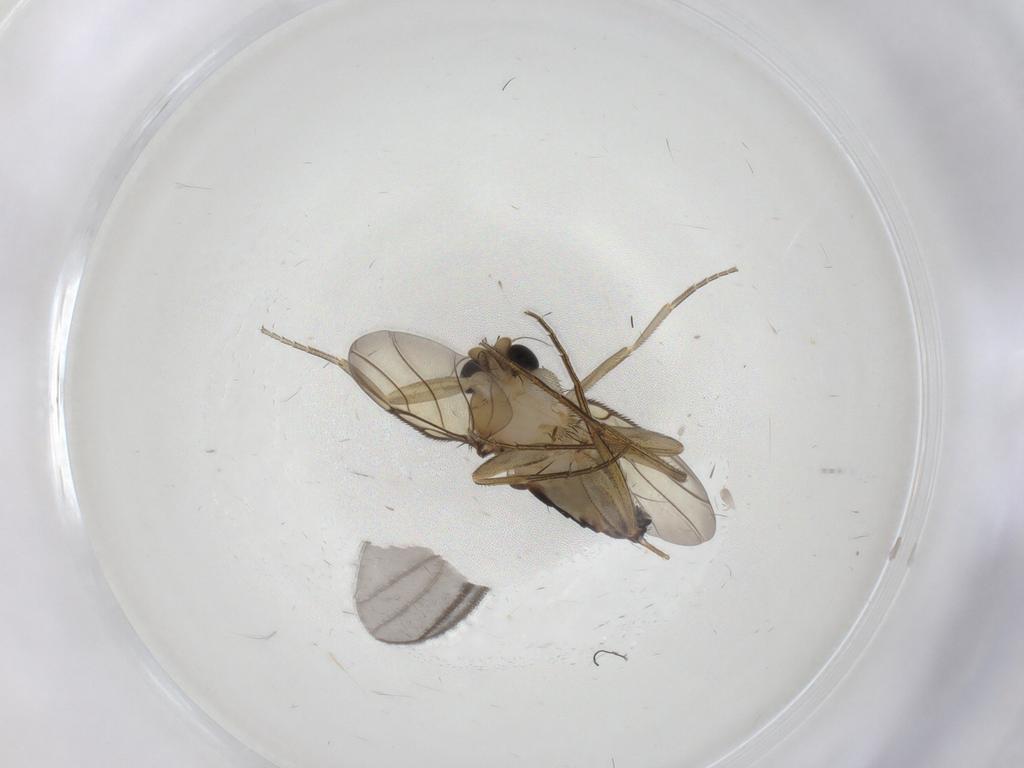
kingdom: Animalia
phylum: Arthropoda
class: Insecta
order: Diptera
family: Phoridae
